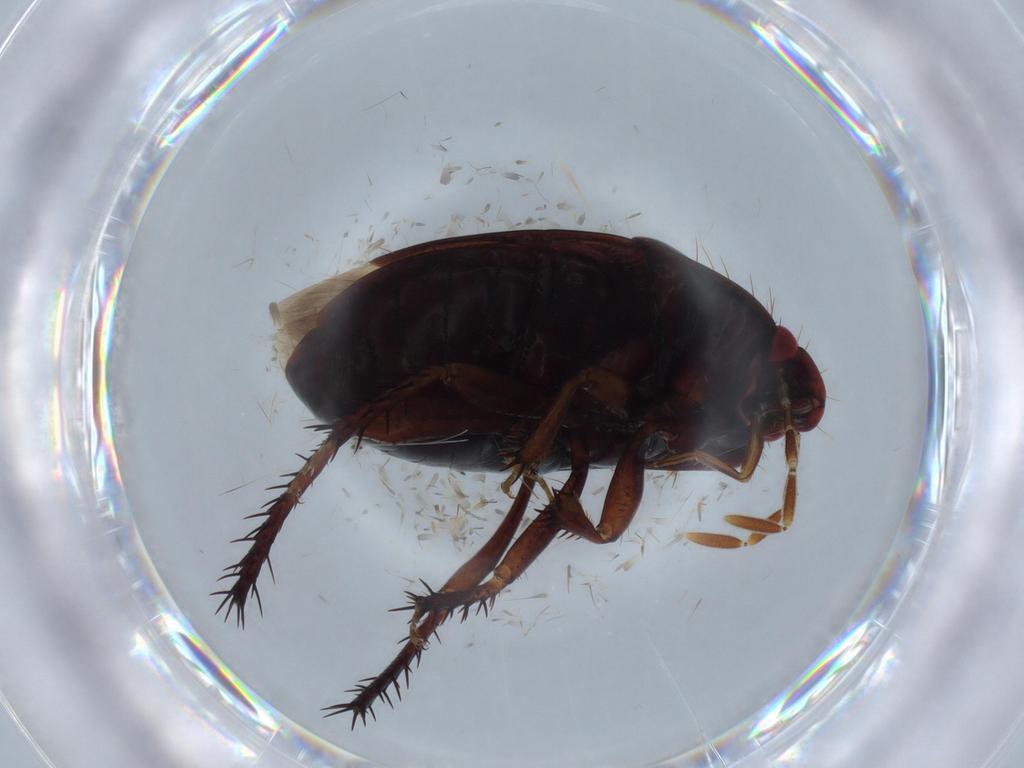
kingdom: Animalia
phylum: Arthropoda
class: Insecta
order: Hemiptera
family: Cydnidae
